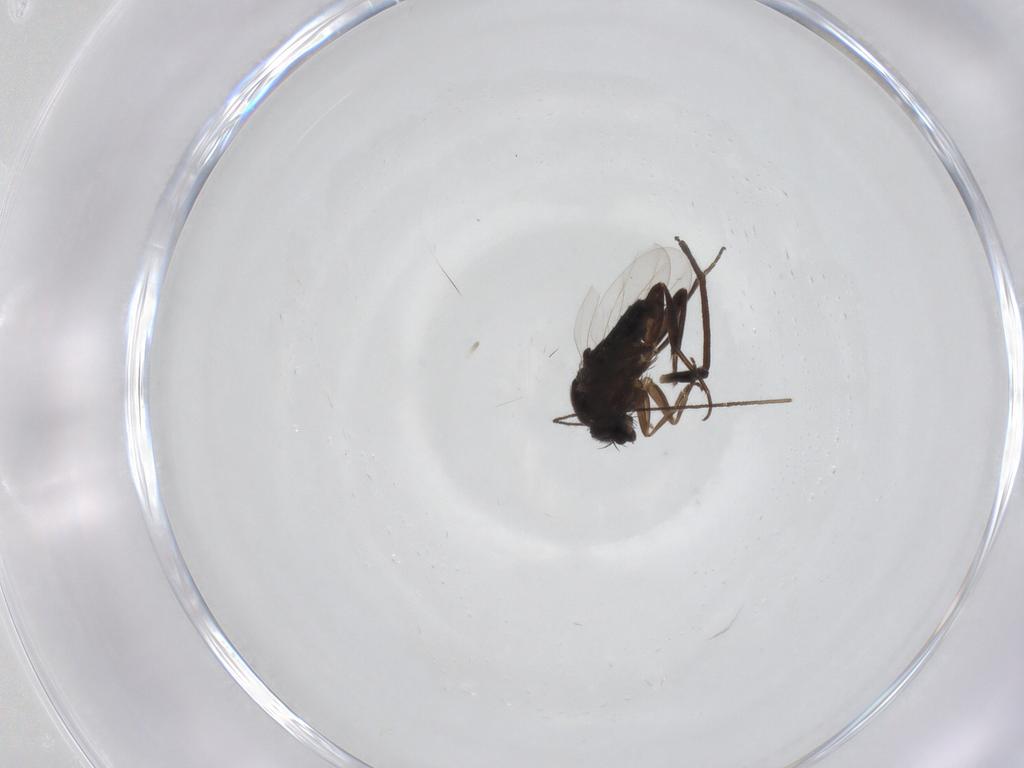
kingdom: Animalia
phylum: Arthropoda
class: Insecta
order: Diptera
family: Phoridae
